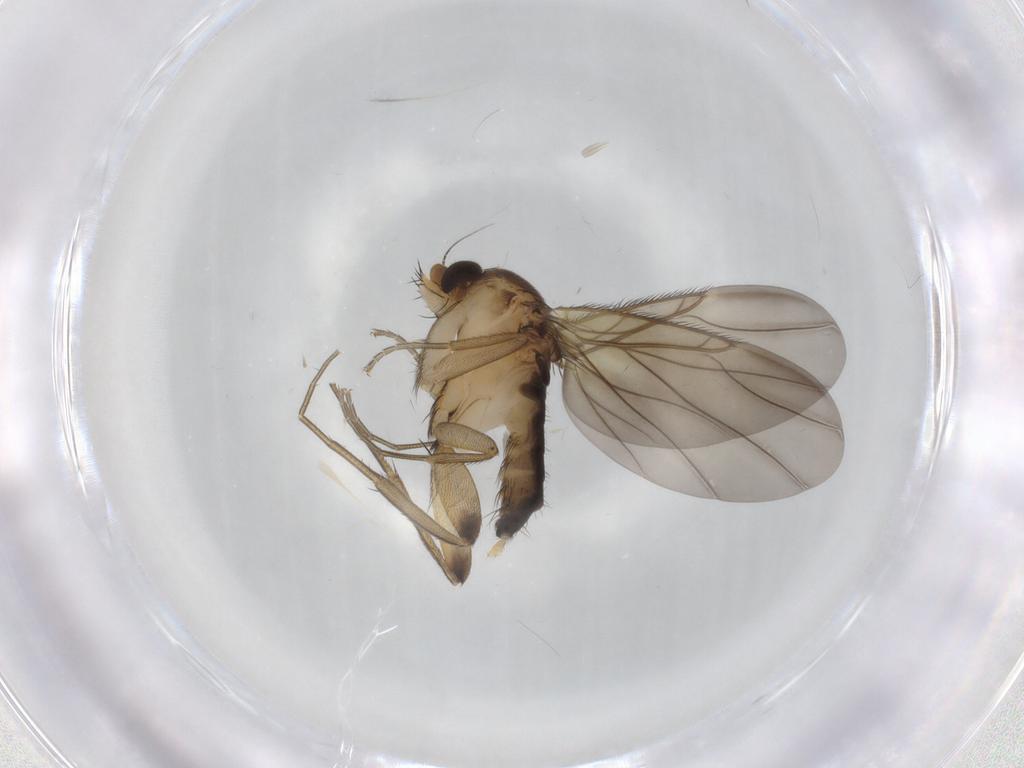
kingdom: Animalia
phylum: Arthropoda
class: Insecta
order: Diptera
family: Phoridae
